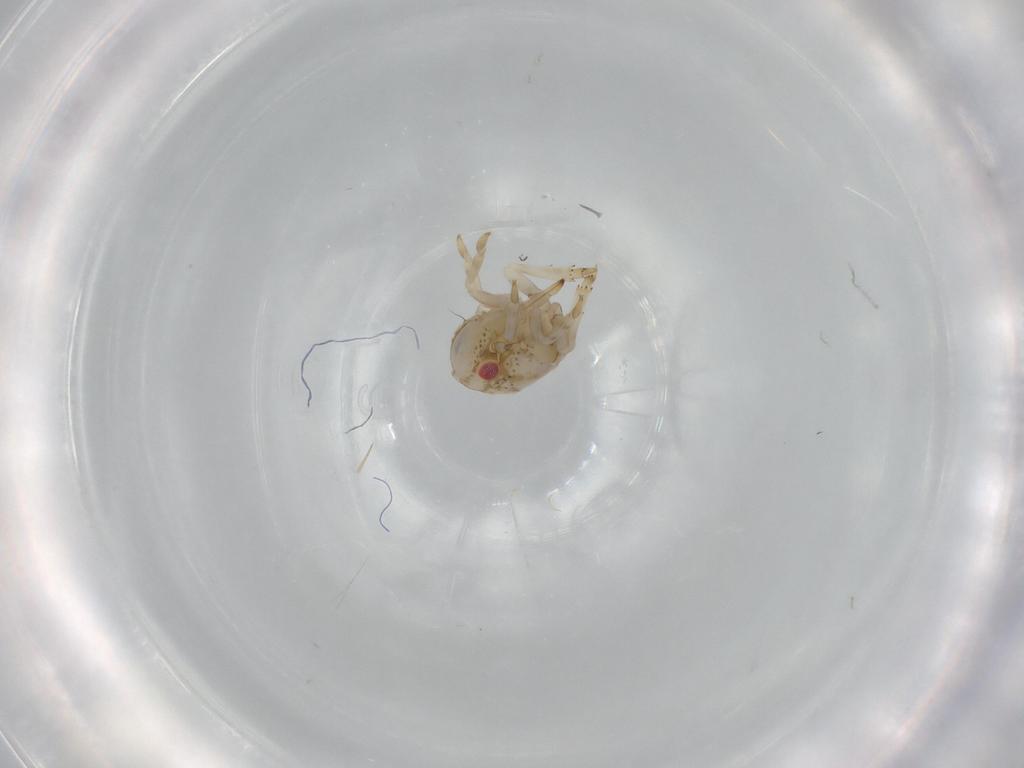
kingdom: Animalia
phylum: Arthropoda
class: Insecta
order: Hemiptera
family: Acanaloniidae
